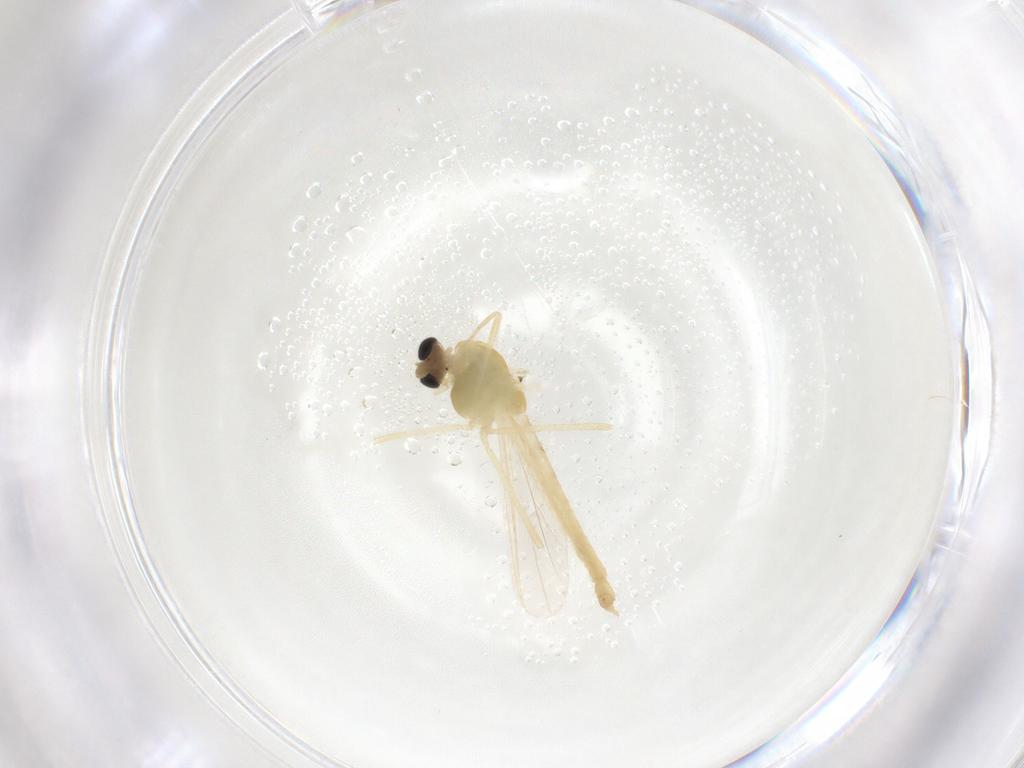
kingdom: Animalia
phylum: Arthropoda
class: Insecta
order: Diptera
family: Chironomidae
